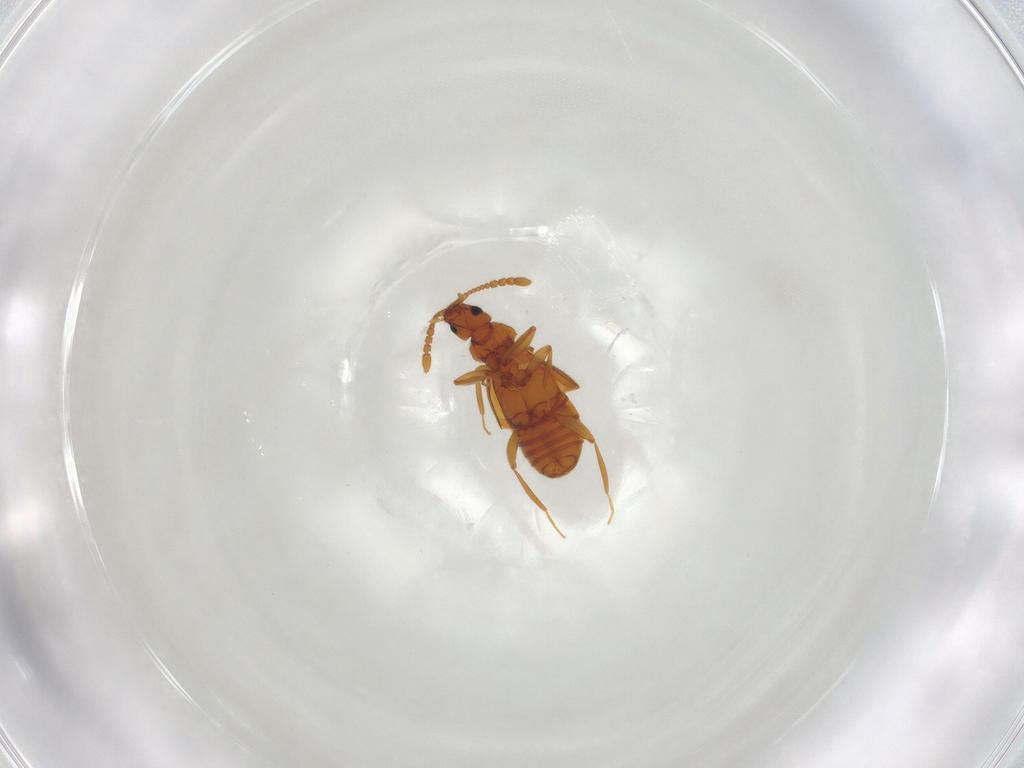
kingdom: Animalia
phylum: Arthropoda
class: Insecta
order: Coleoptera
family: Staphylinidae
